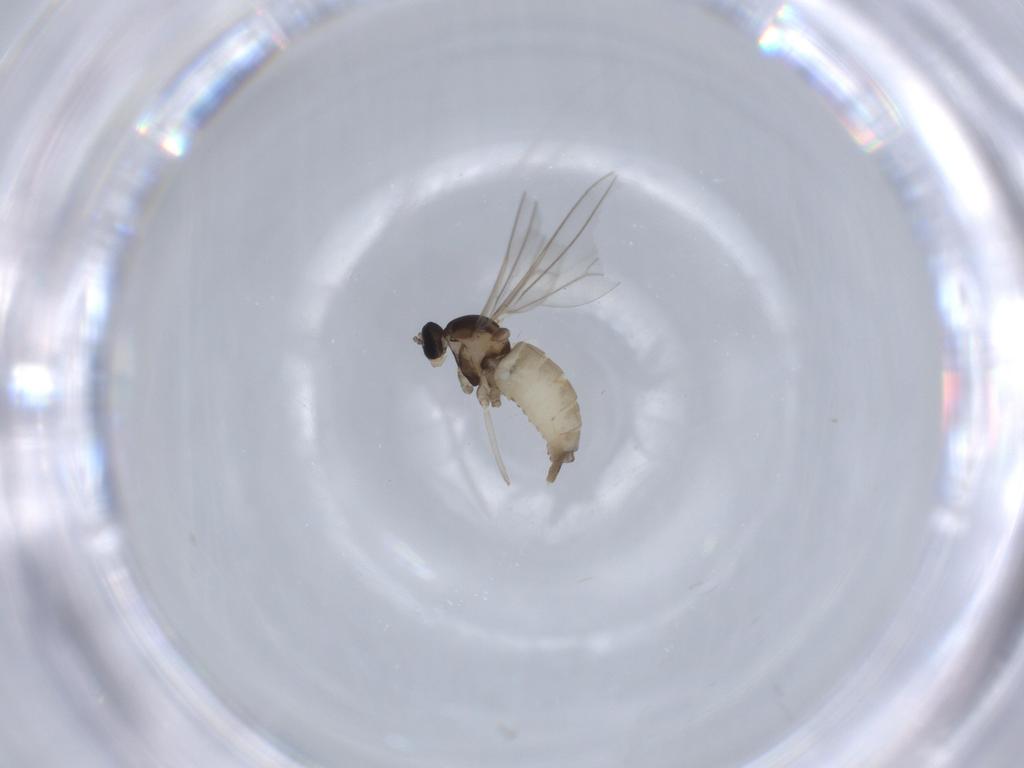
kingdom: Animalia
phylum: Arthropoda
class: Insecta
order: Diptera
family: Cecidomyiidae
